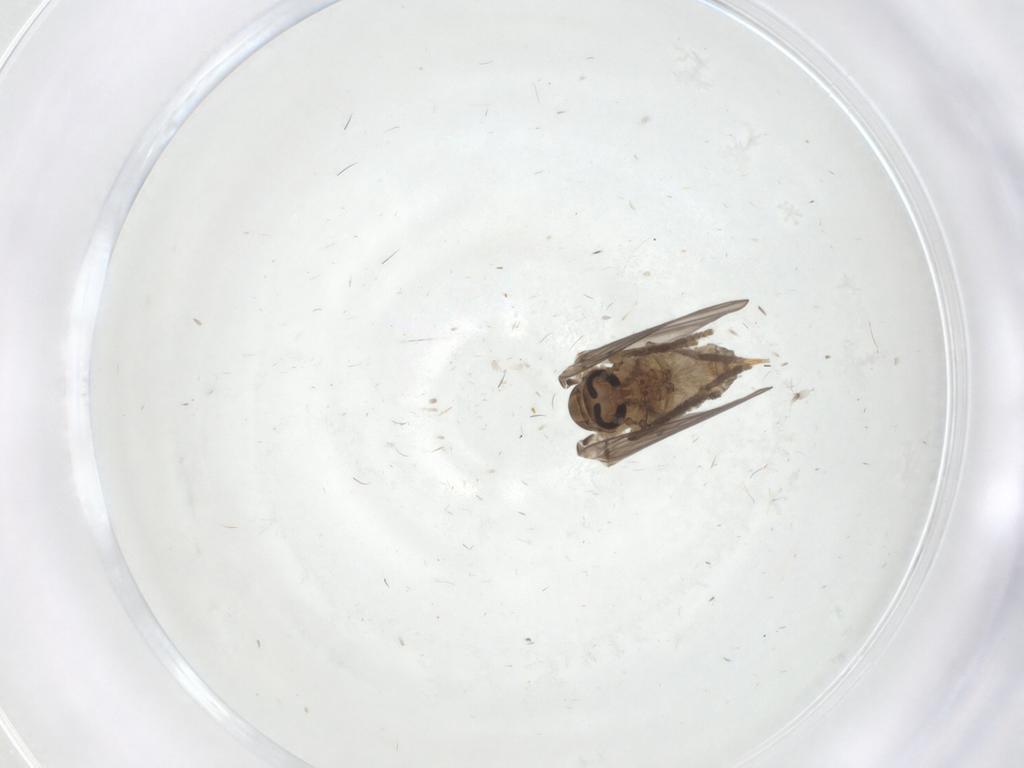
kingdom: Animalia
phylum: Arthropoda
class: Insecta
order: Diptera
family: Psychodidae
